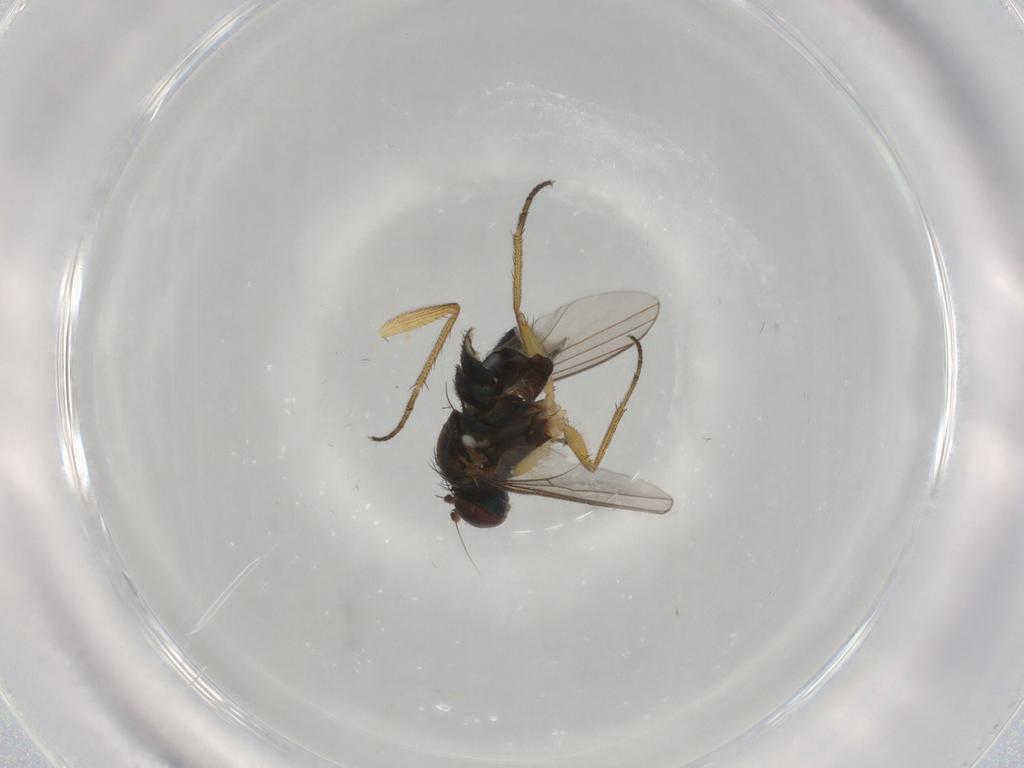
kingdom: Animalia
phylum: Arthropoda
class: Insecta
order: Diptera
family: Dolichopodidae
